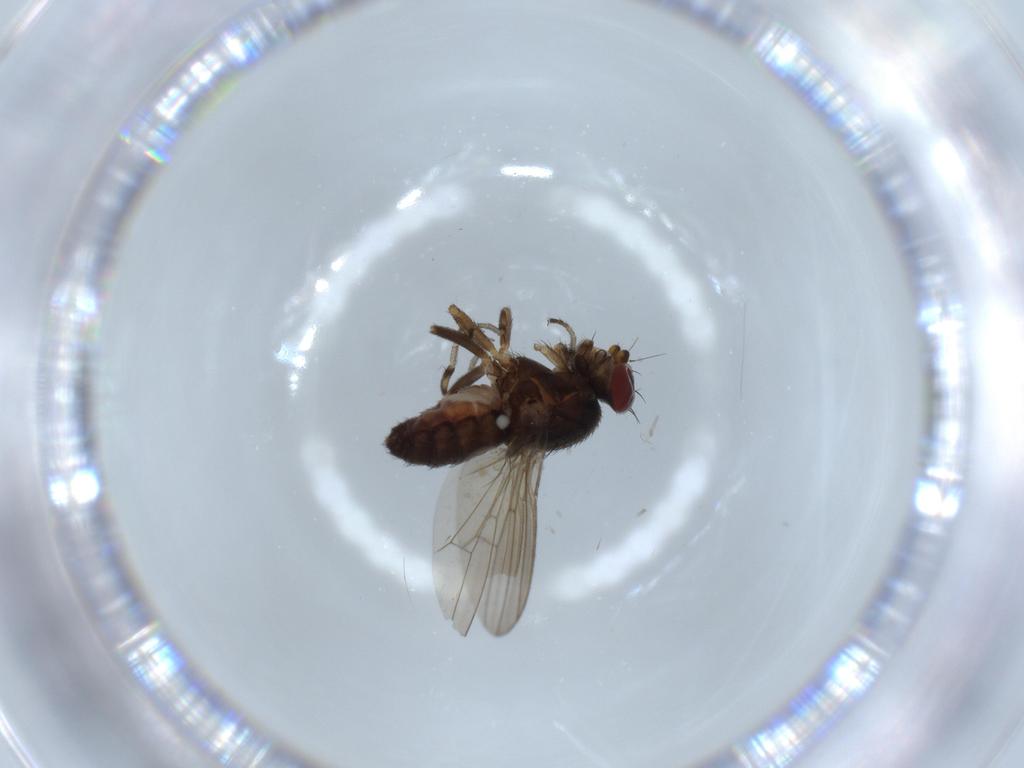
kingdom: Animalia
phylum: Arthropoda
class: Insecta
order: Diptera
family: Heleomyzidae
